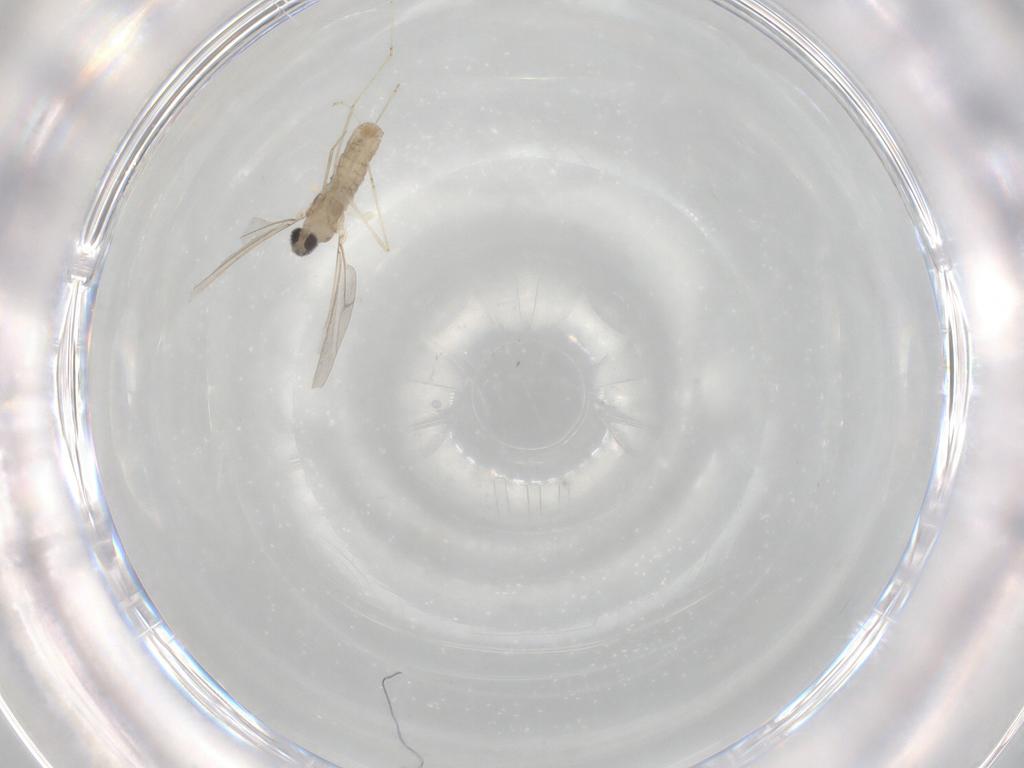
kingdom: Animalia
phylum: Arthropoda
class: Insecta
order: Diptera
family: Cecidomyiidae
